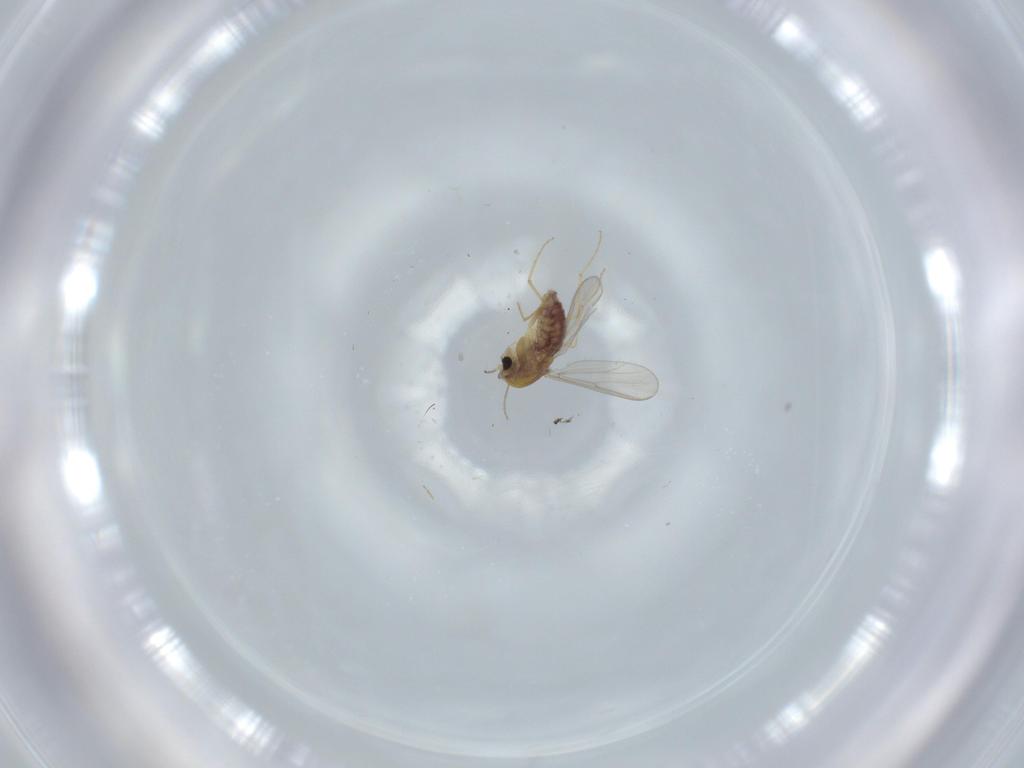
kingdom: Animalia
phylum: Arthropoda
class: Insecta
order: Diptera
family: Chironomidae
